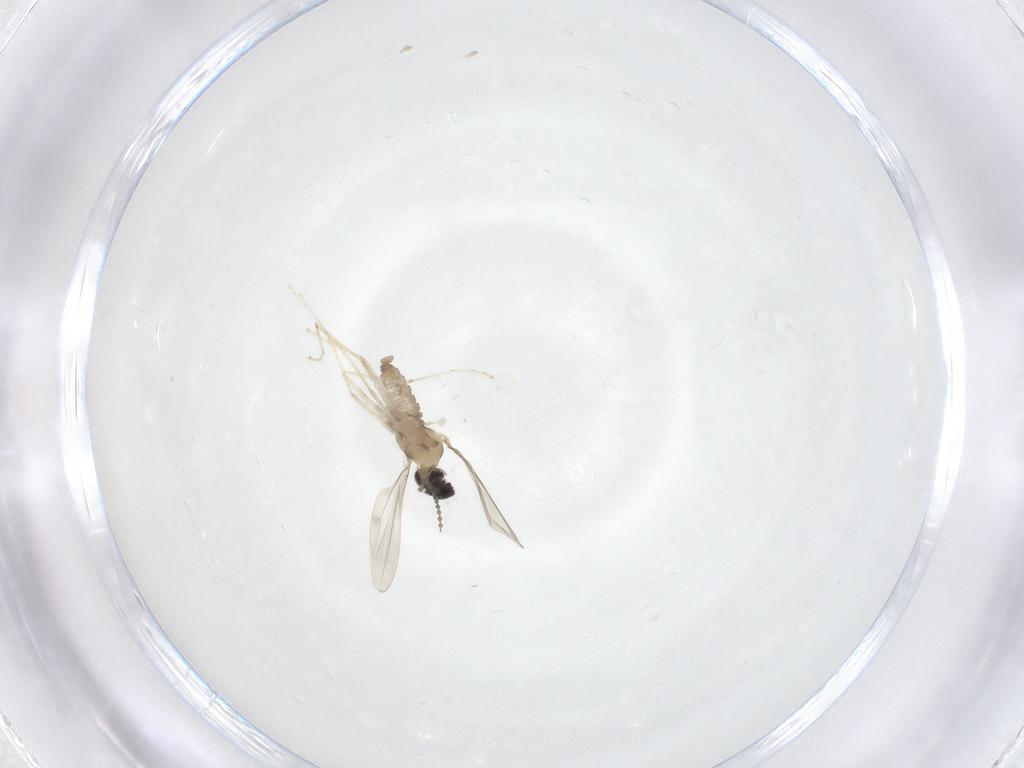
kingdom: Animalia
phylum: Arthropoda
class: Insecta
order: Diptera
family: Cecidomyiidae
